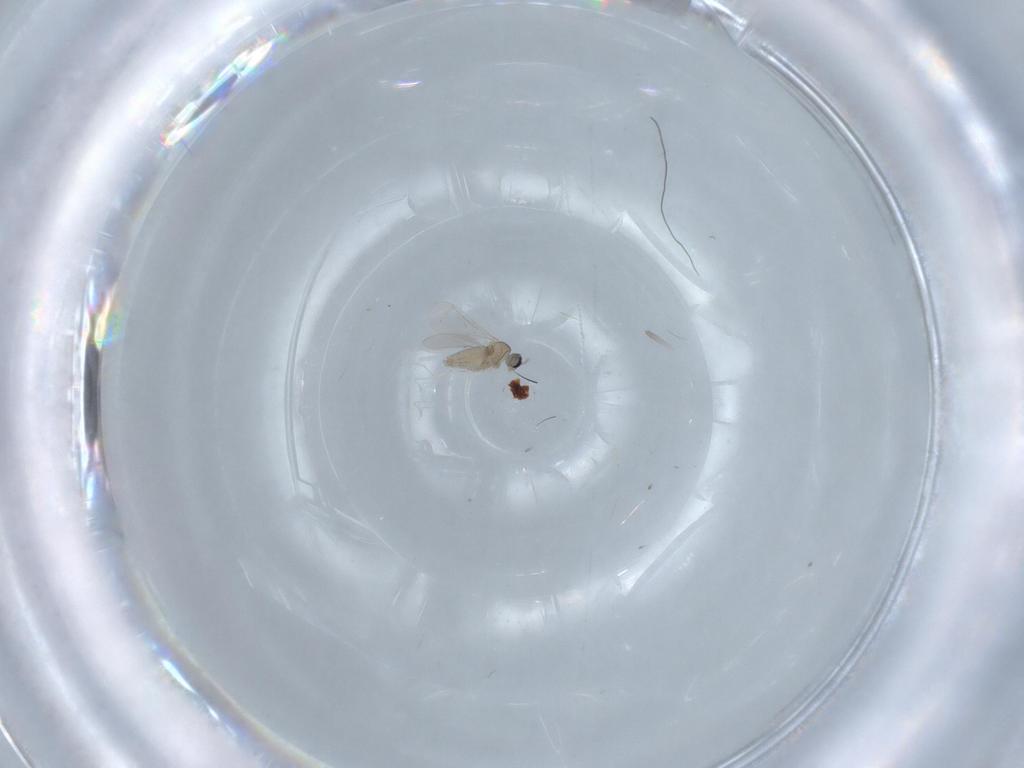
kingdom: Animalia
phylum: Arthropoda
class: Insecta
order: Diptera
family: Cecidomyiidae
